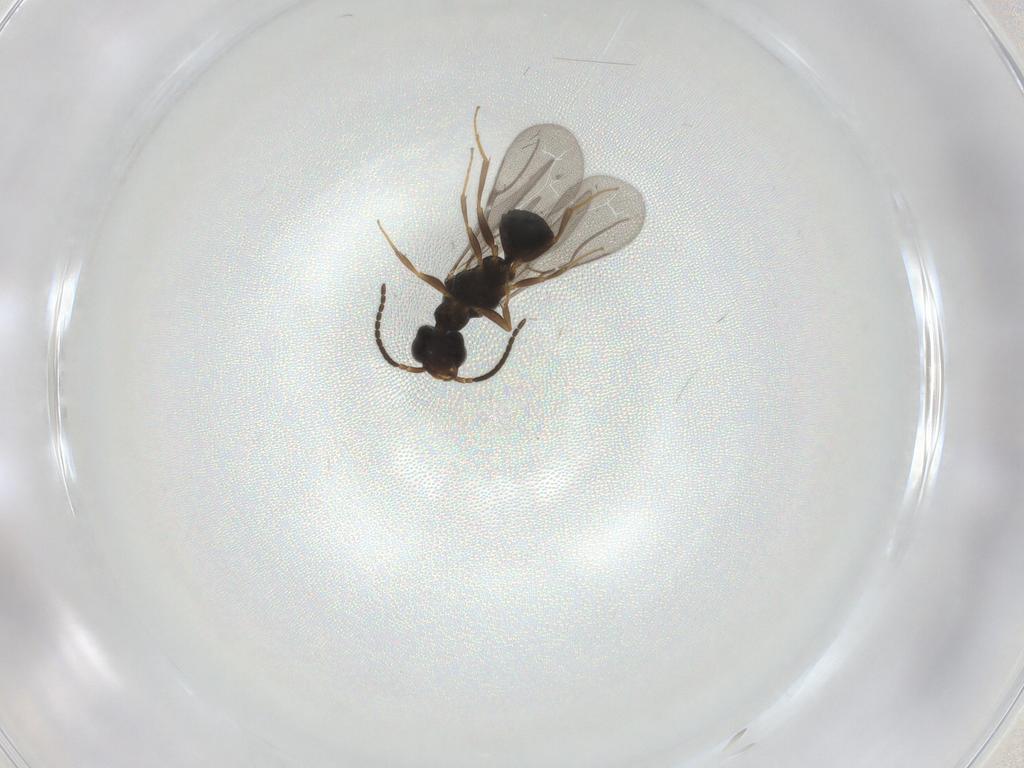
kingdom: Animalia
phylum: Arthropoda
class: Insecta
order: Hymenoptera
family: Bethylidae
